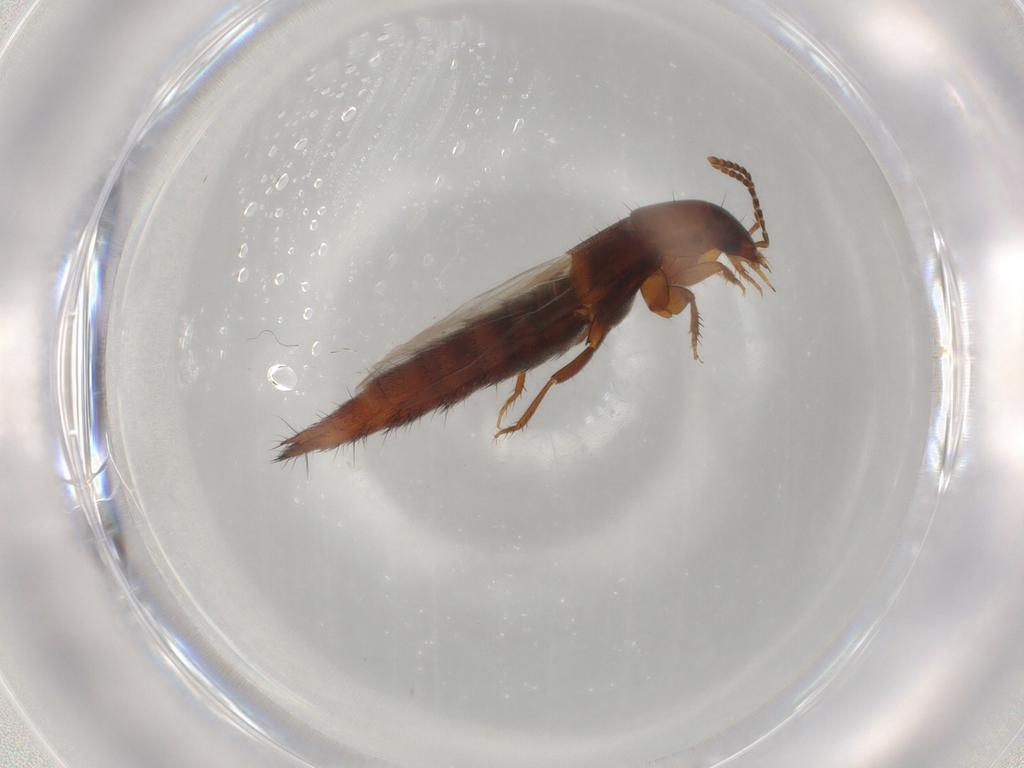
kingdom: Animalia
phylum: Arthropoda
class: Insecta
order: Coleoptera
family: Staphylinidae
